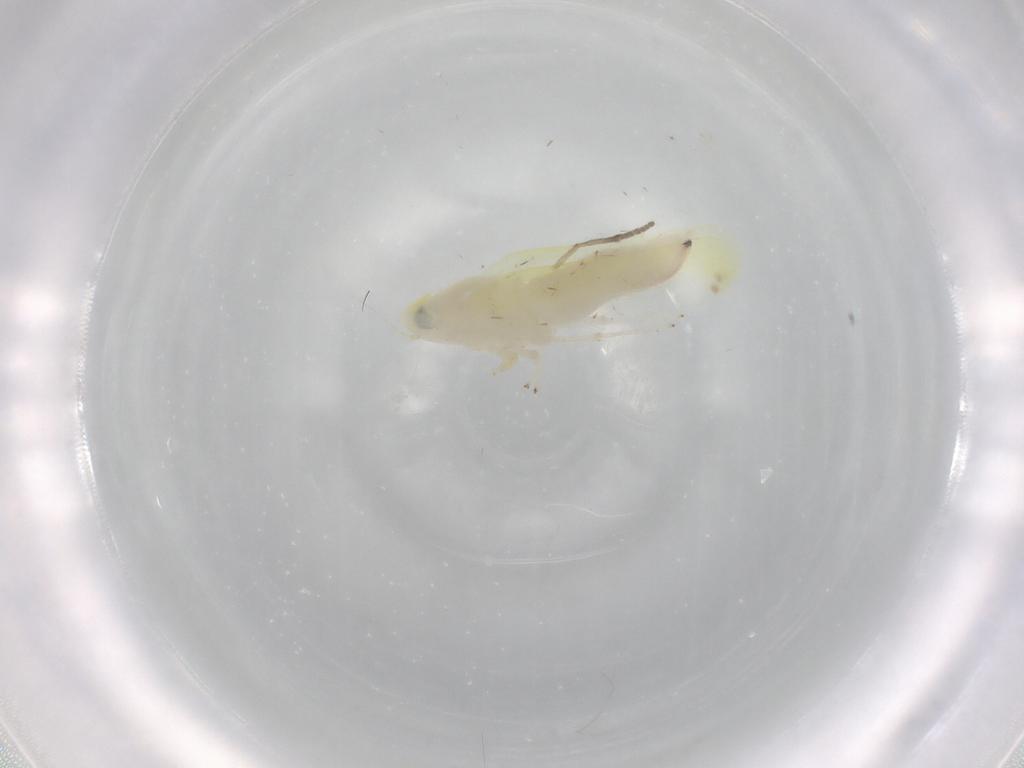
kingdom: Animalia
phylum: Arthropoda
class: Insecta
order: Hemiptera
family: Cicadellidae
